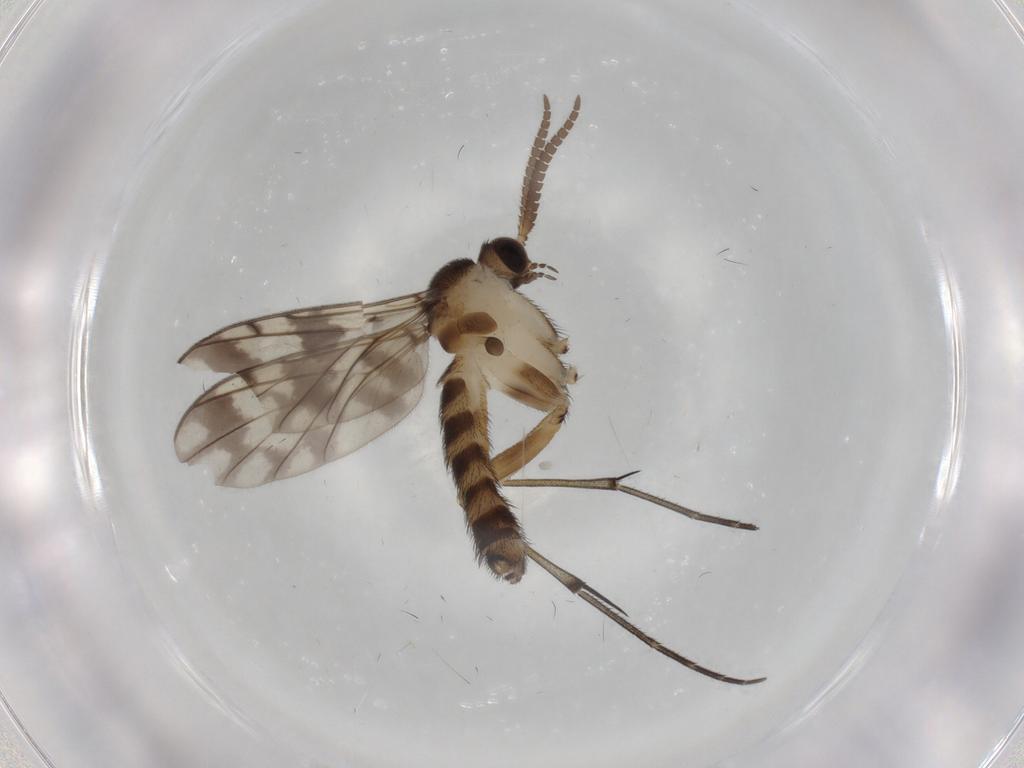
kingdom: Animalia
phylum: Arthropoda
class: Insecta
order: Diptera
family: Keroplatidae
